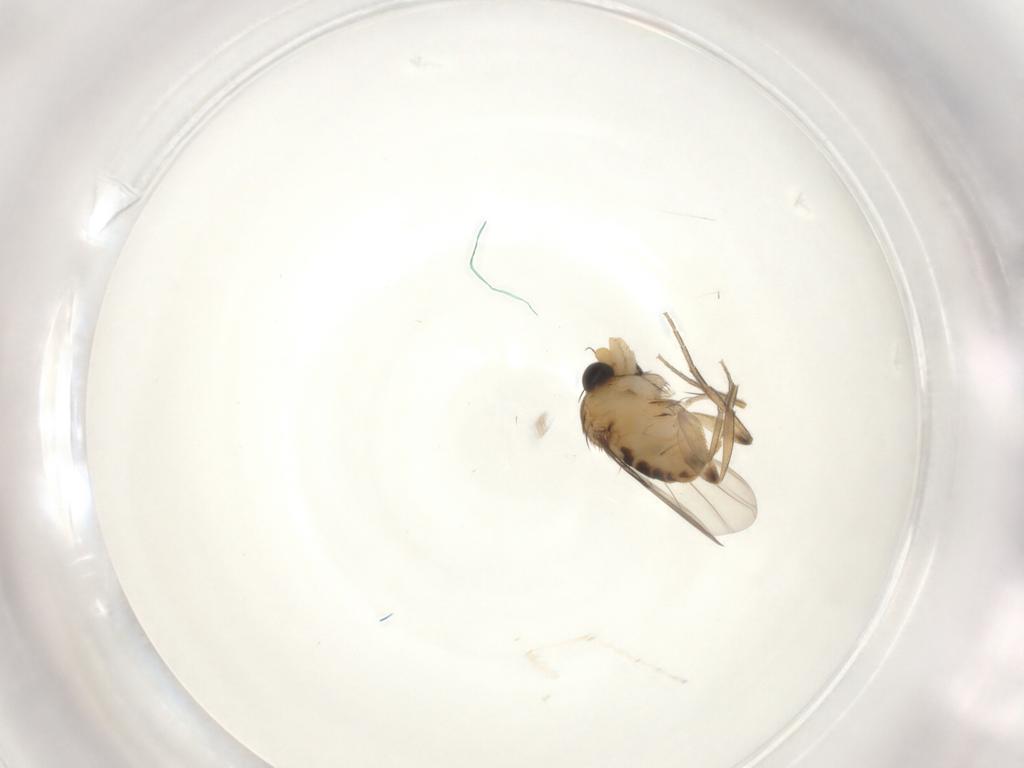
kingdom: Animalia
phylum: Arthropoda
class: Insecta
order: Diptera
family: Phoridae
